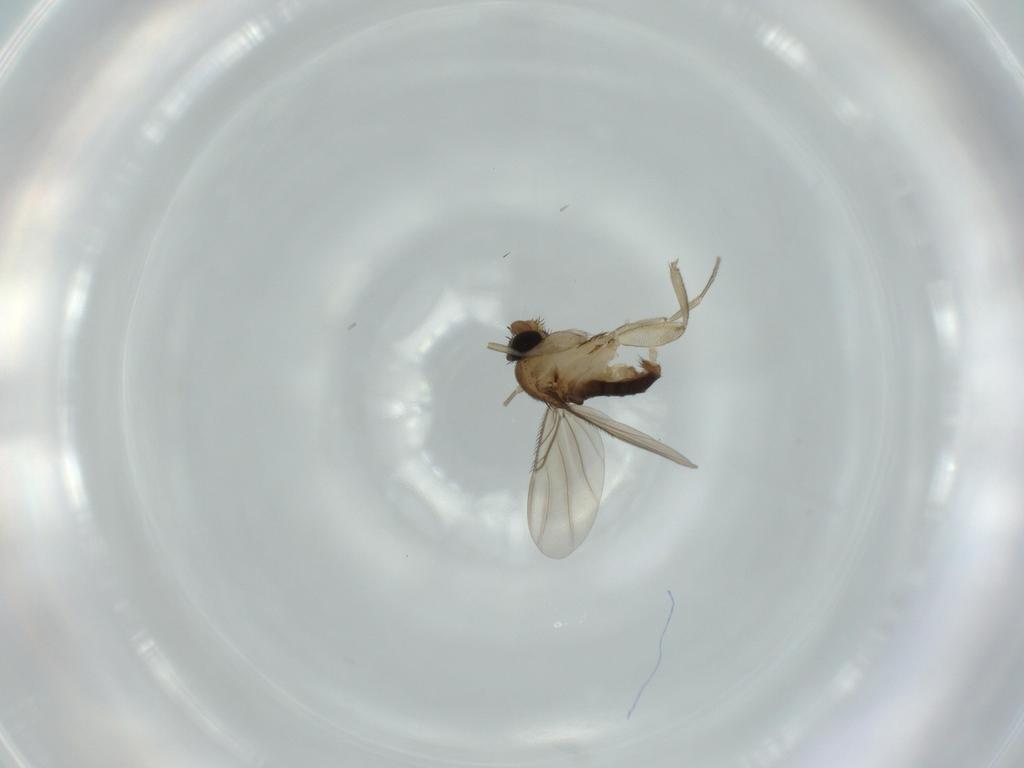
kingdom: Animalia
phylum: Arthropoda
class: Insecta
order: Diptera
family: Phoridae
